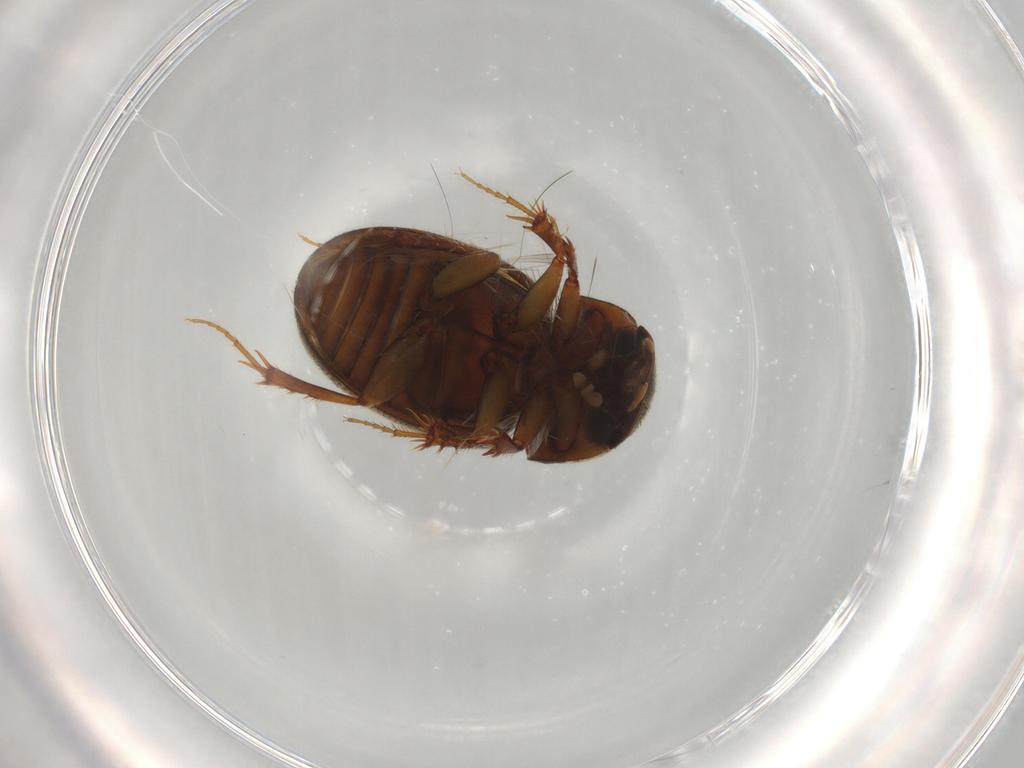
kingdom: Animalia
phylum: Arthropoda
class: Insecta
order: Coleoptera
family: Scarabaeidae
